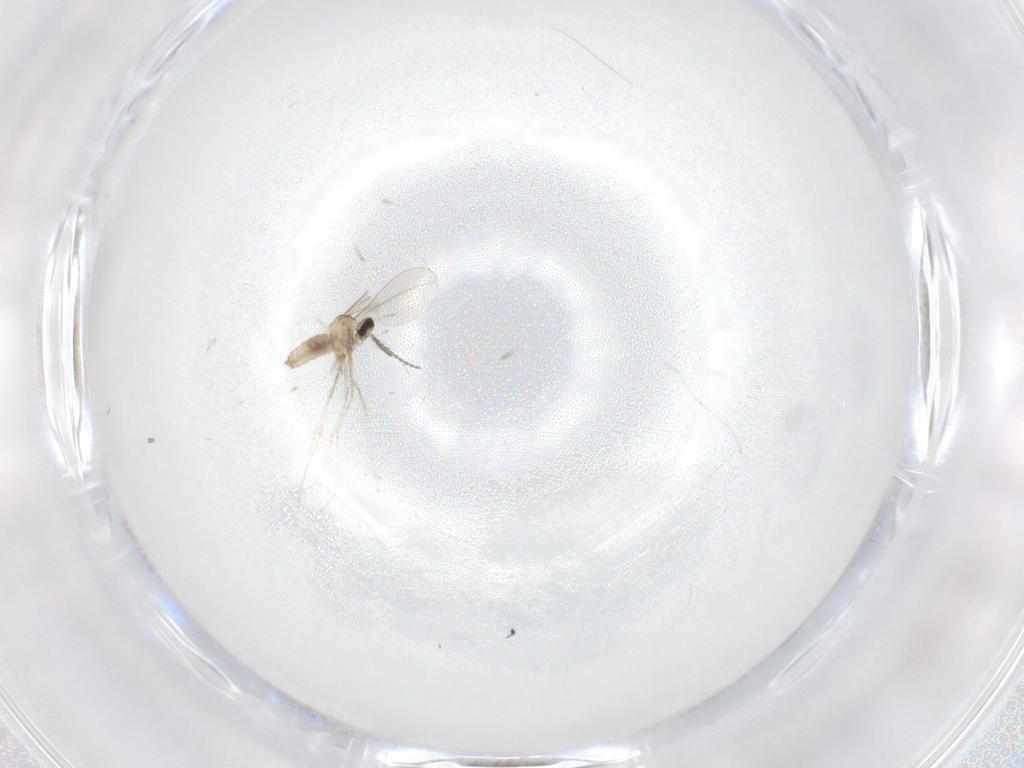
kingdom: Animalia
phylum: Arthropoda
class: Insecta
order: Diptera
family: Cecidomyiidae
